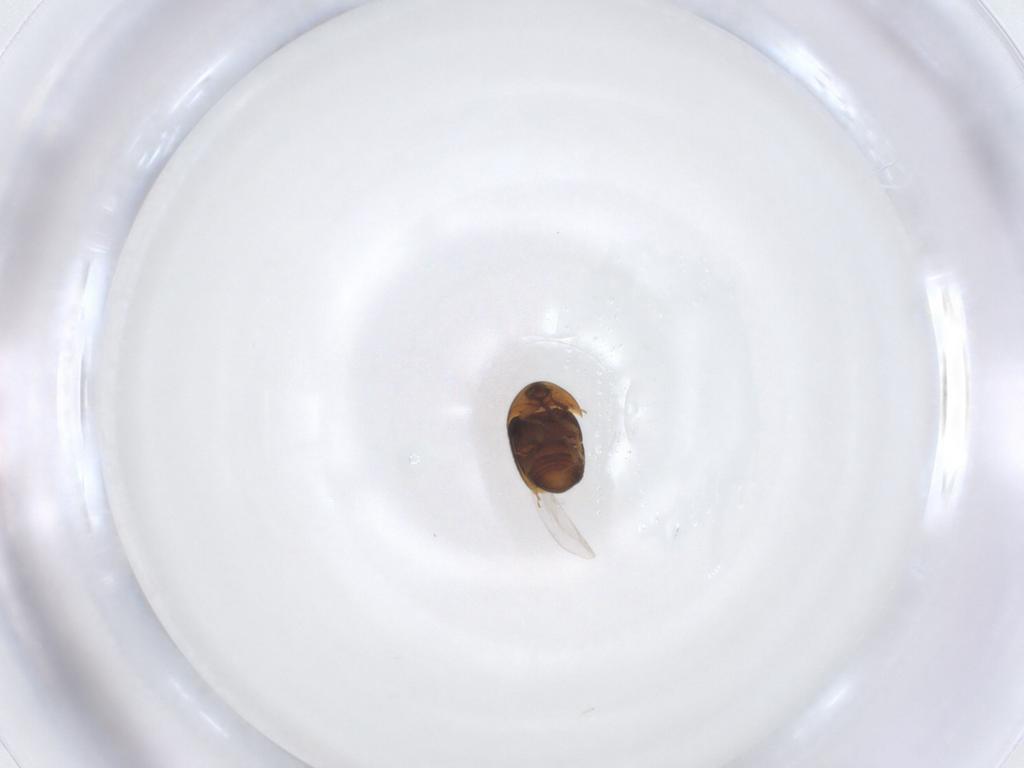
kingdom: Animalia
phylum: Arthropoda
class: Insecta
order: Coleoptera
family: Corylophidae
